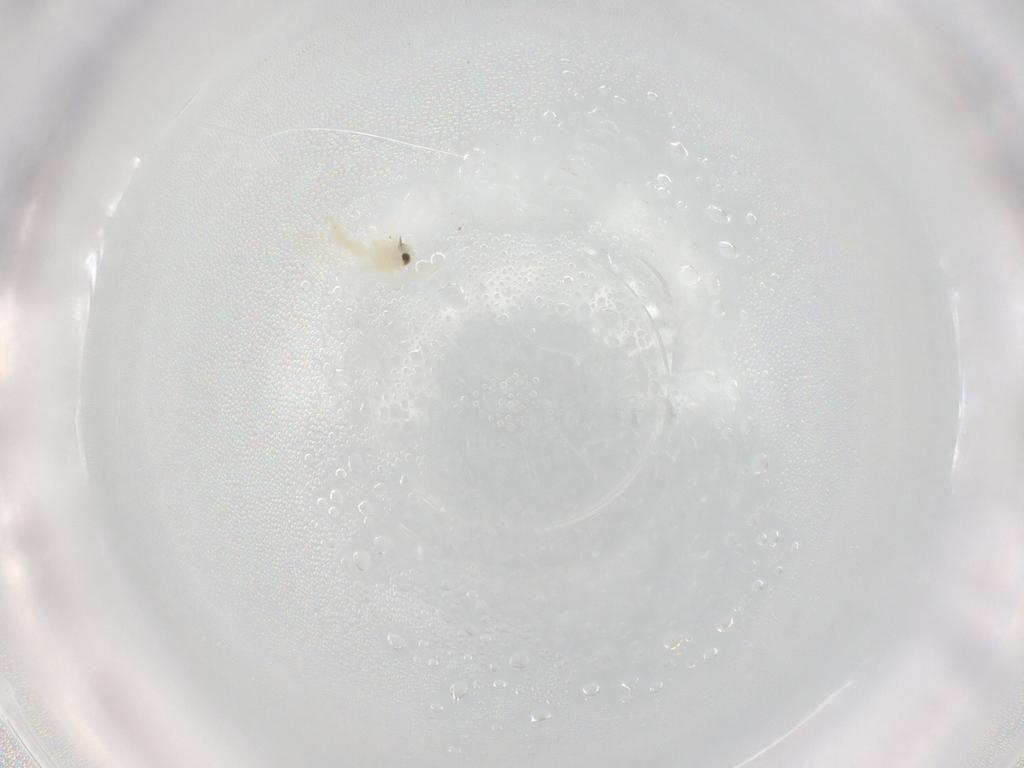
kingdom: Animalia
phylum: Arthropoda
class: Insecta
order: Hemiptera
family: Aleyrodidae
